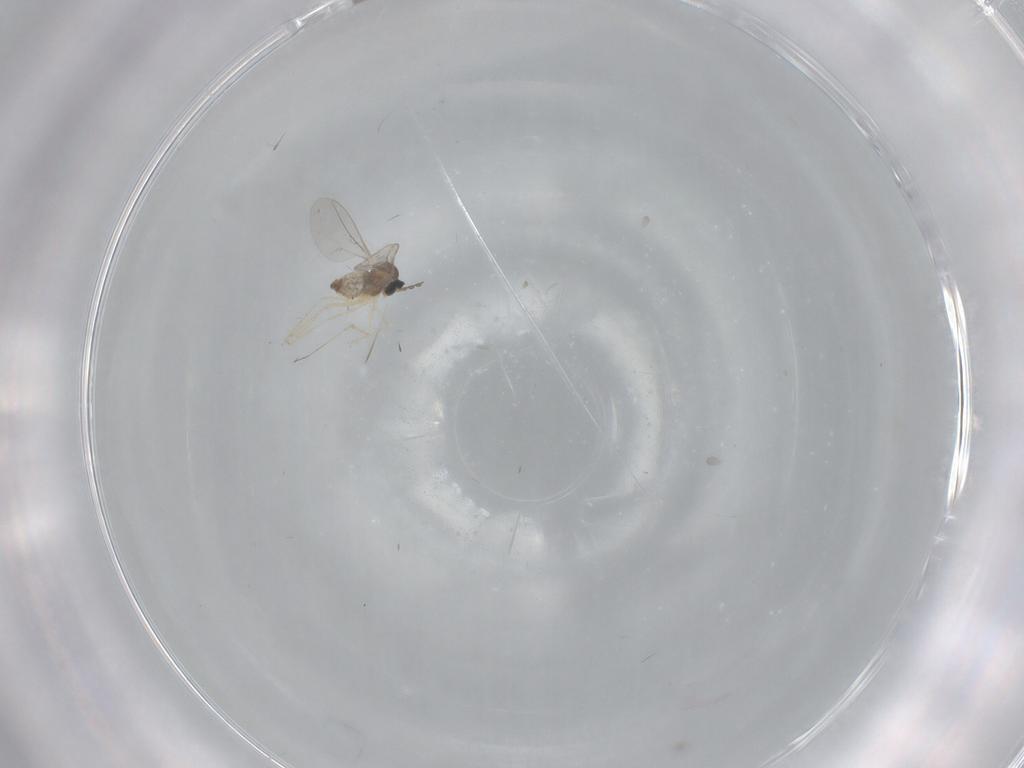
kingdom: Animalia
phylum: Arthropoda
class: Insecta
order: Diptera
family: Cecidomyiidae
